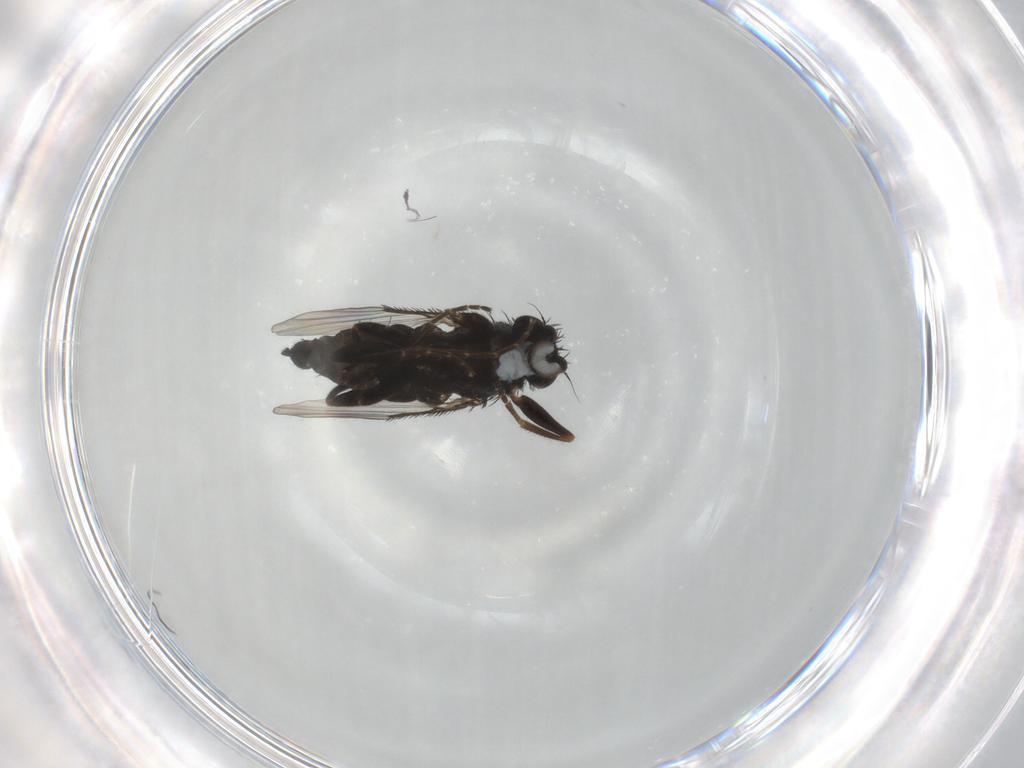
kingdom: Animalia
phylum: Arthropoda
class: Insecta
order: Diptera
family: Phoridae
